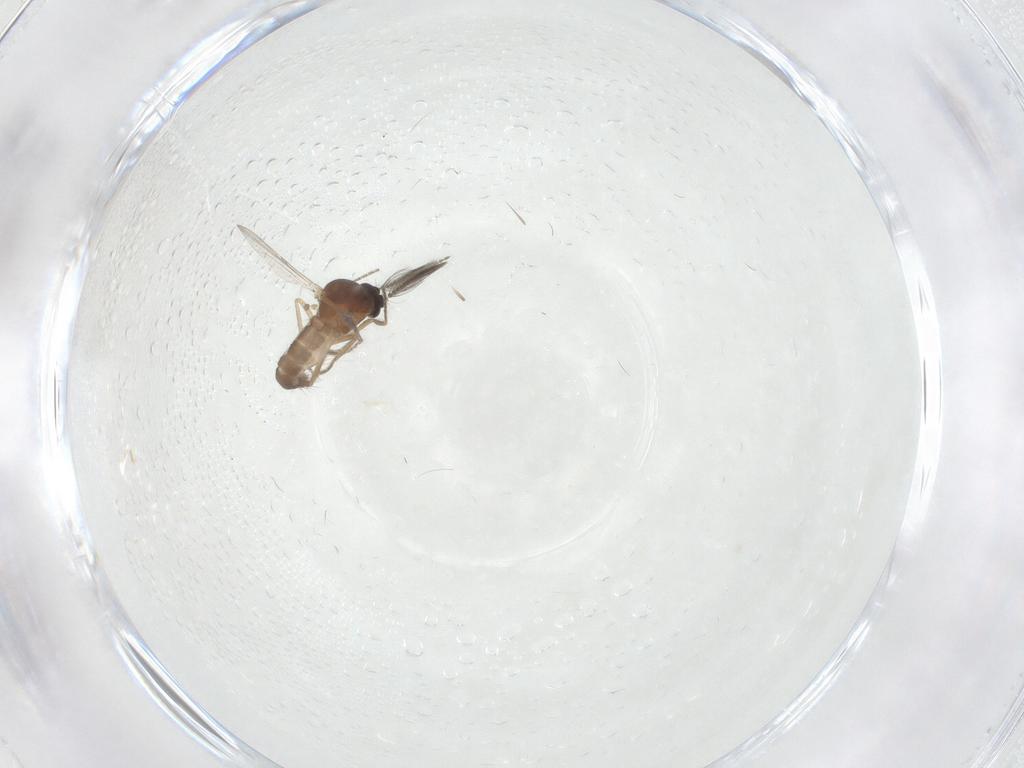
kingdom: Animalia
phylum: Arthropoda
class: Insecta
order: Diptera
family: Ceratopogonidae
